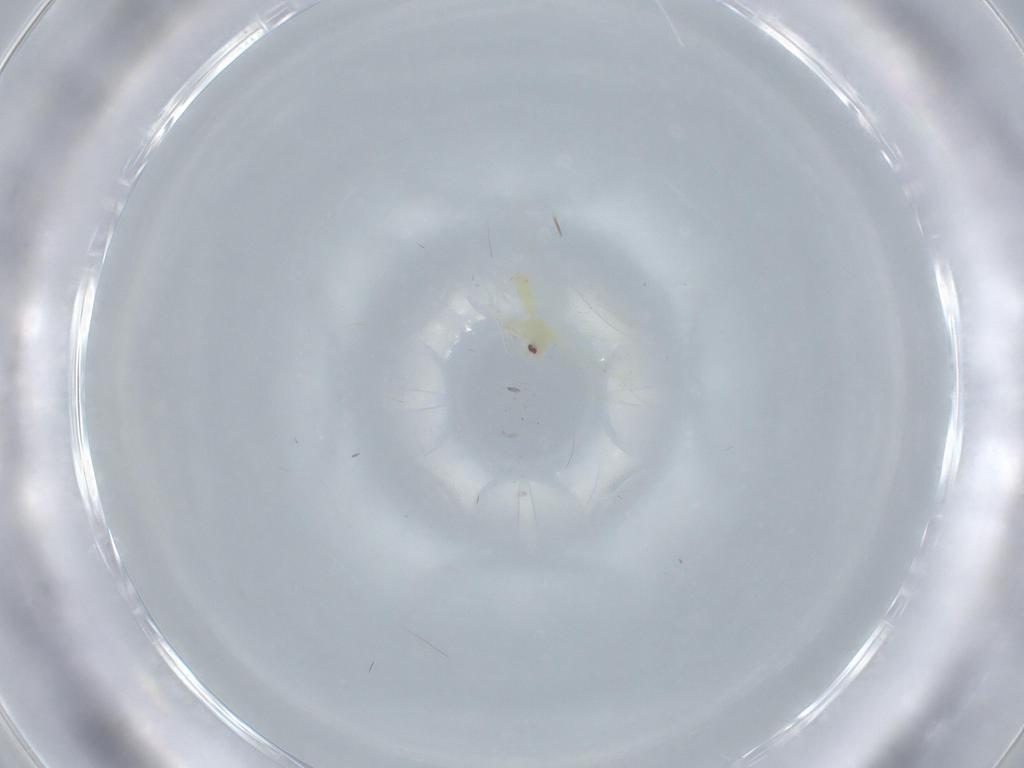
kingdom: Animalia
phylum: Arthropoda
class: Insecta
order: Hemiptera
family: Aleyrodidae
